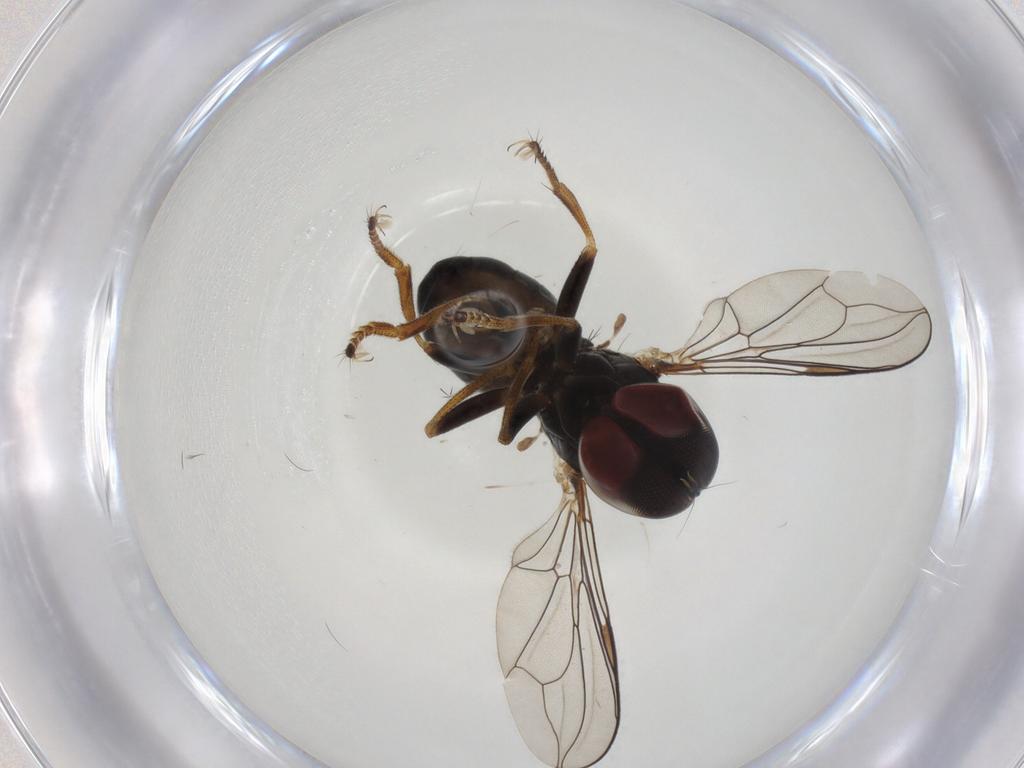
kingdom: Animalia
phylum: Arthropoda
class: Insecta
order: Diptera
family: Pipunculidae
